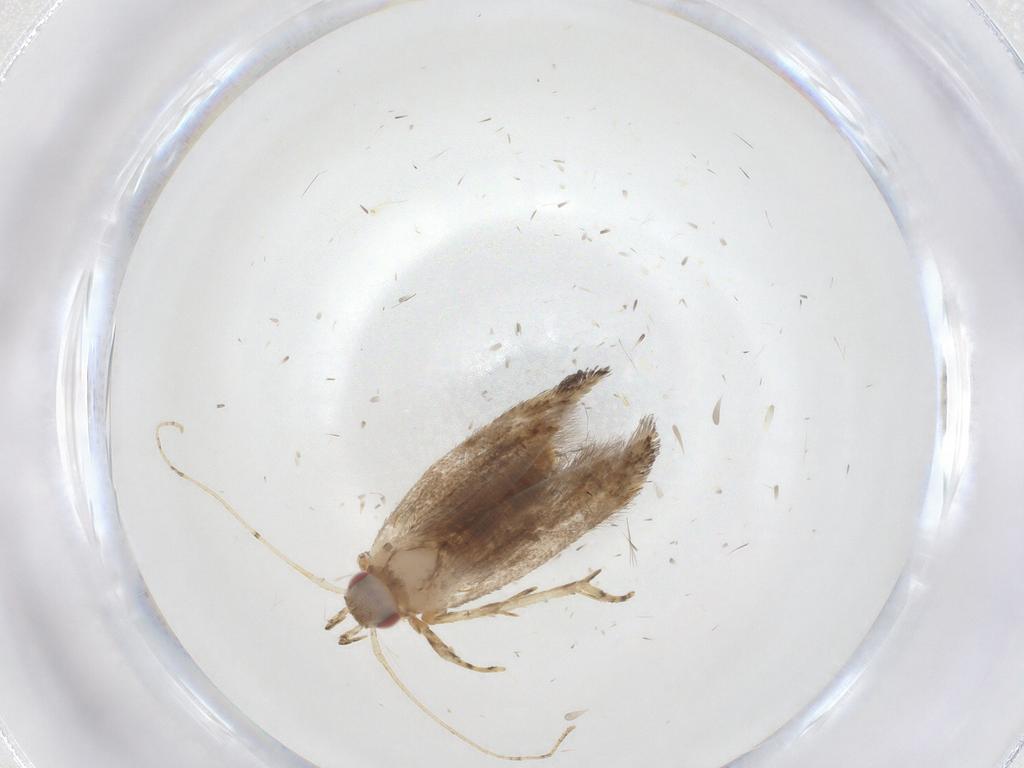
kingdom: Animalia
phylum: Arthropoda
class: Insecta
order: Lepidoptera
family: Cosmopterigidae
